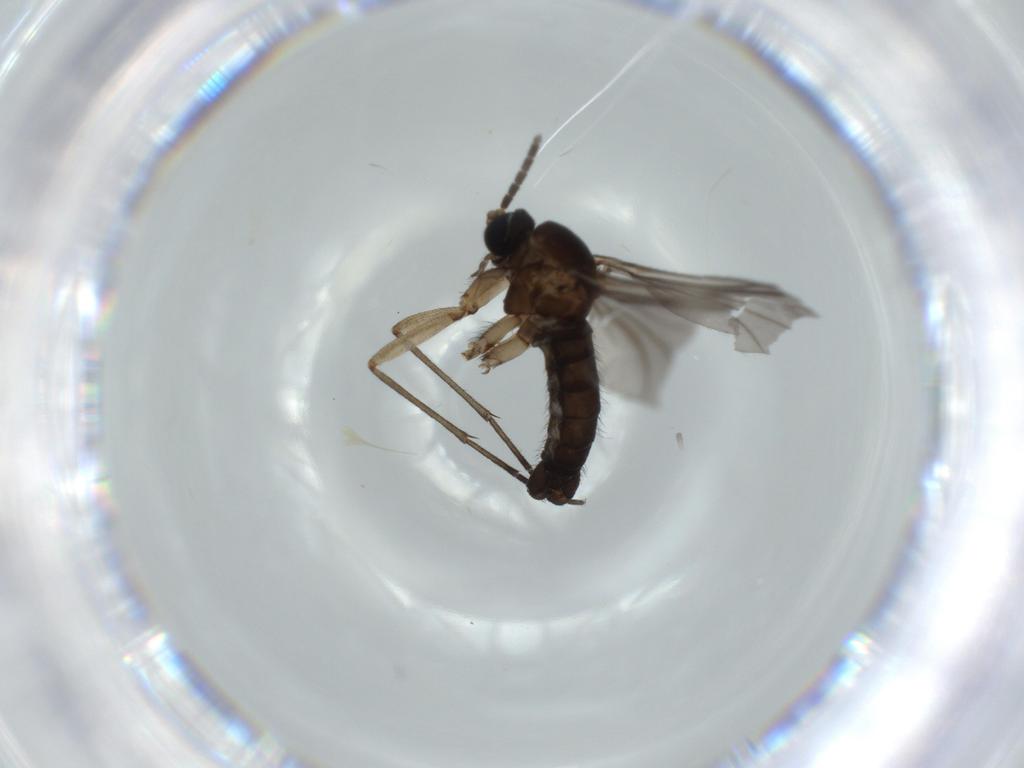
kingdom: Animalia
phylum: Arthropoda
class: Insecta
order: Diptera
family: Sciaridae
